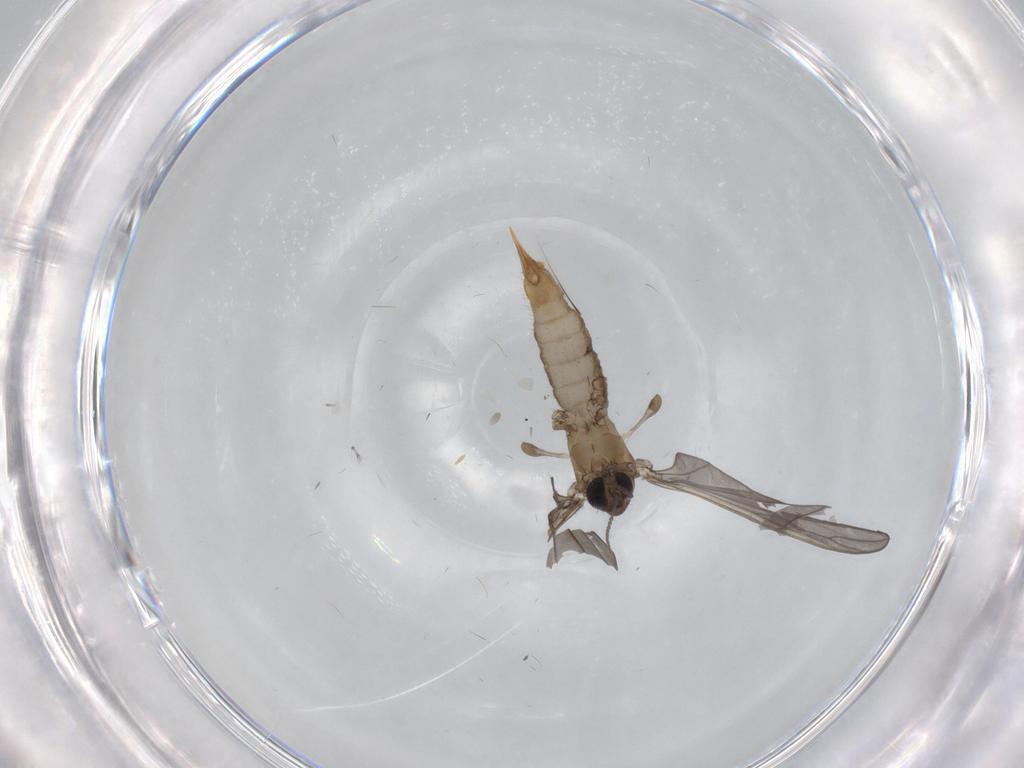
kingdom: Animalia
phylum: Arthropoda
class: Insecta
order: Diptera
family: Limoniidae
